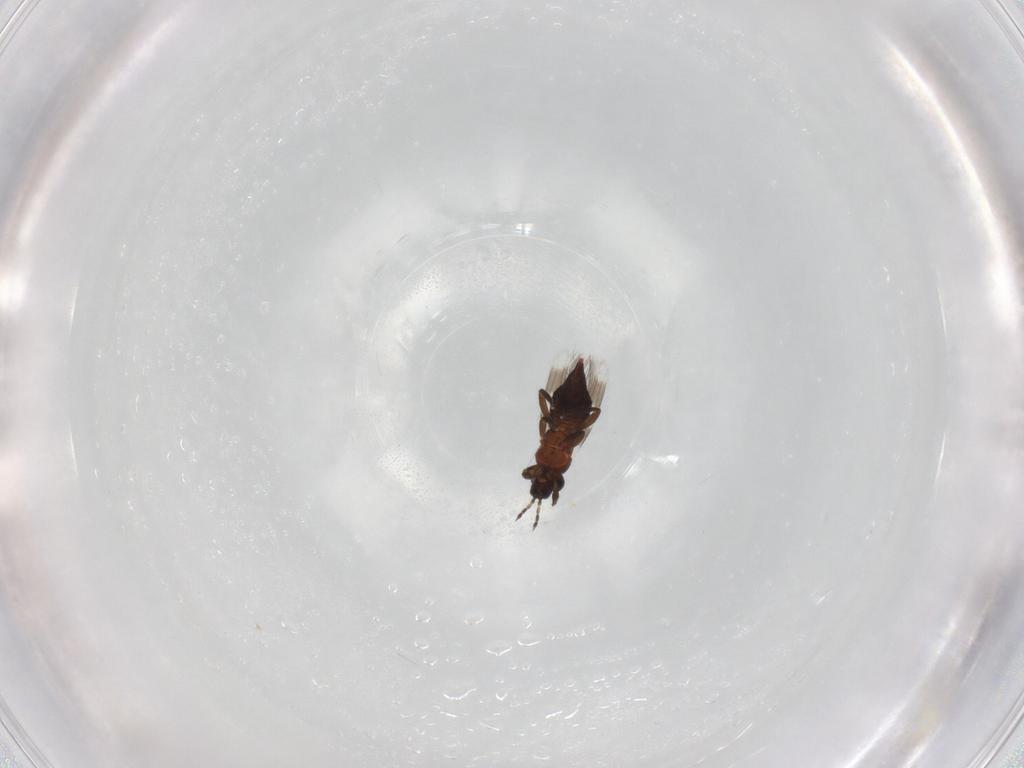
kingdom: Animalia
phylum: Arthropoda
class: Insecta
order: Thysanoptera
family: Aeolothripidae
